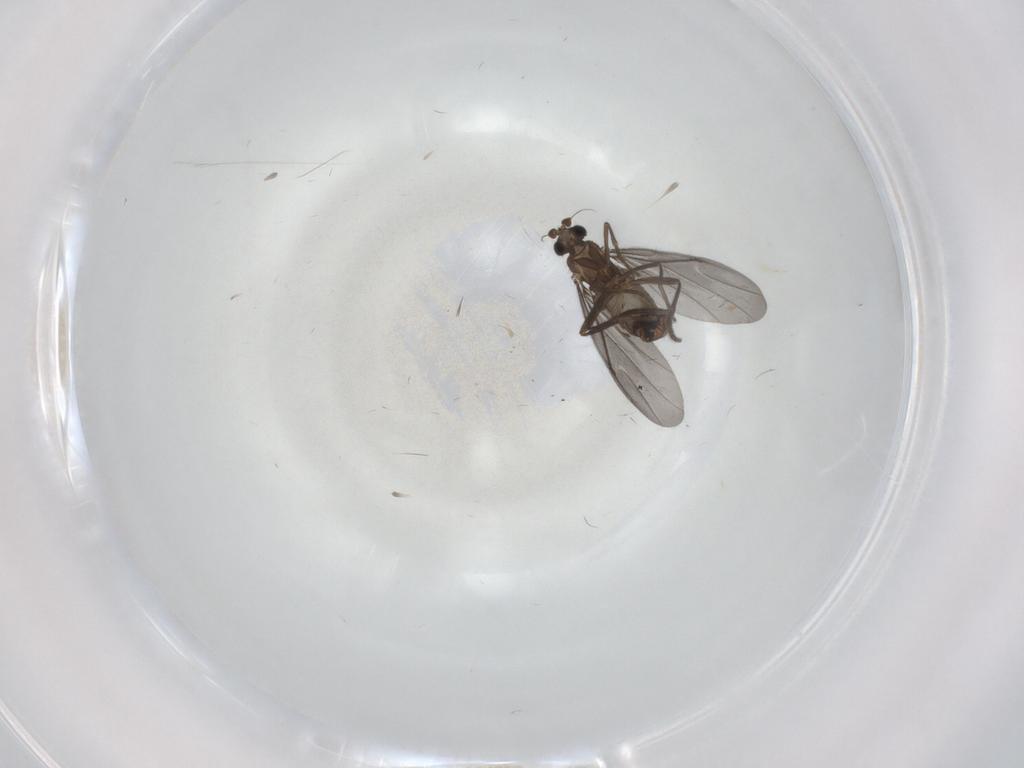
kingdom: Animalia
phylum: Arthropoda
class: Insecta
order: Diptera
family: Phoridae
